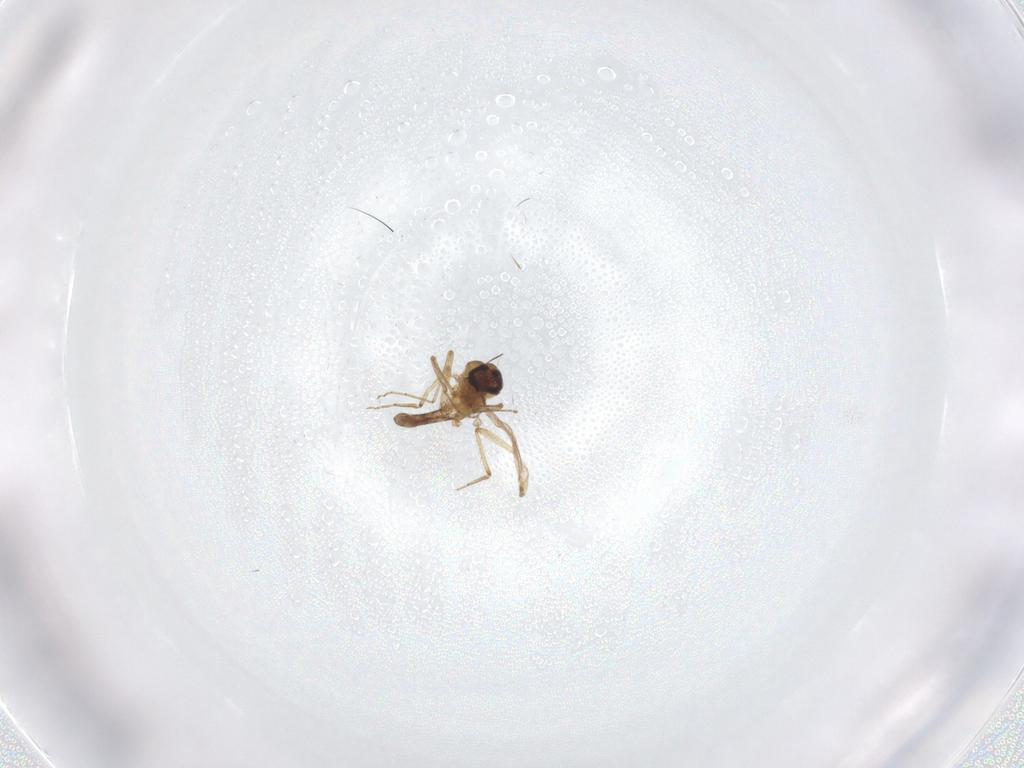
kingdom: Animalia
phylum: Arthropoda
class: Insecta
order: Diptera
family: Ceratopogonidae
